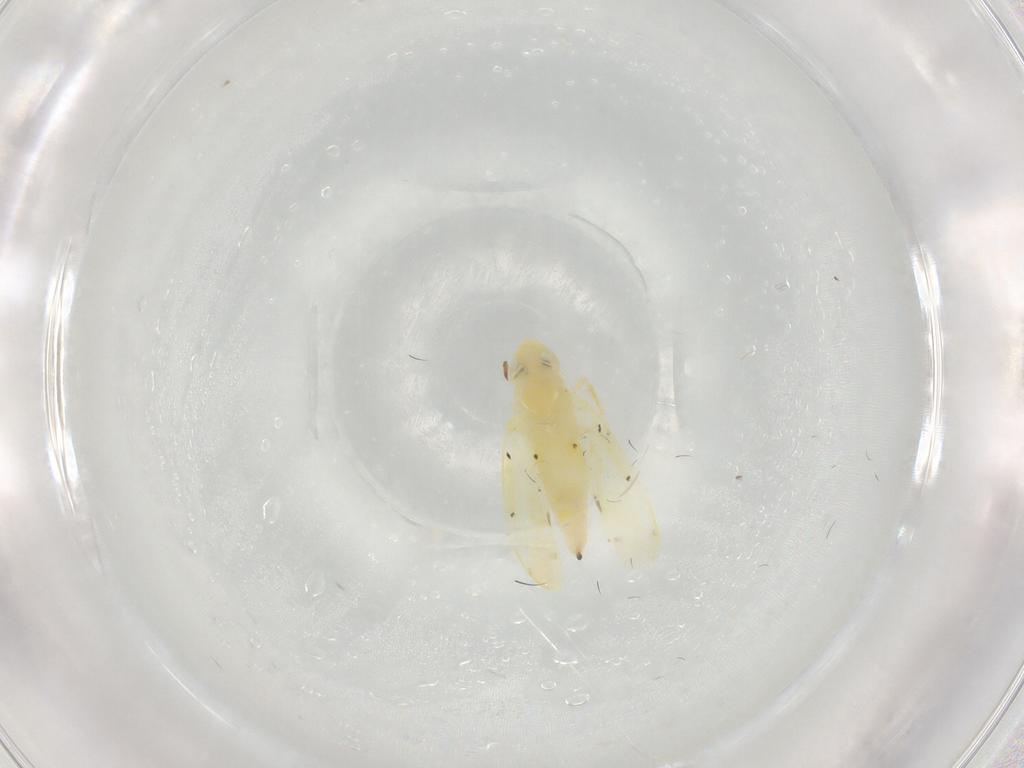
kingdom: Animalia
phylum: Arthropoda
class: Insecta
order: Hemiptera
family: Cicadellidae
